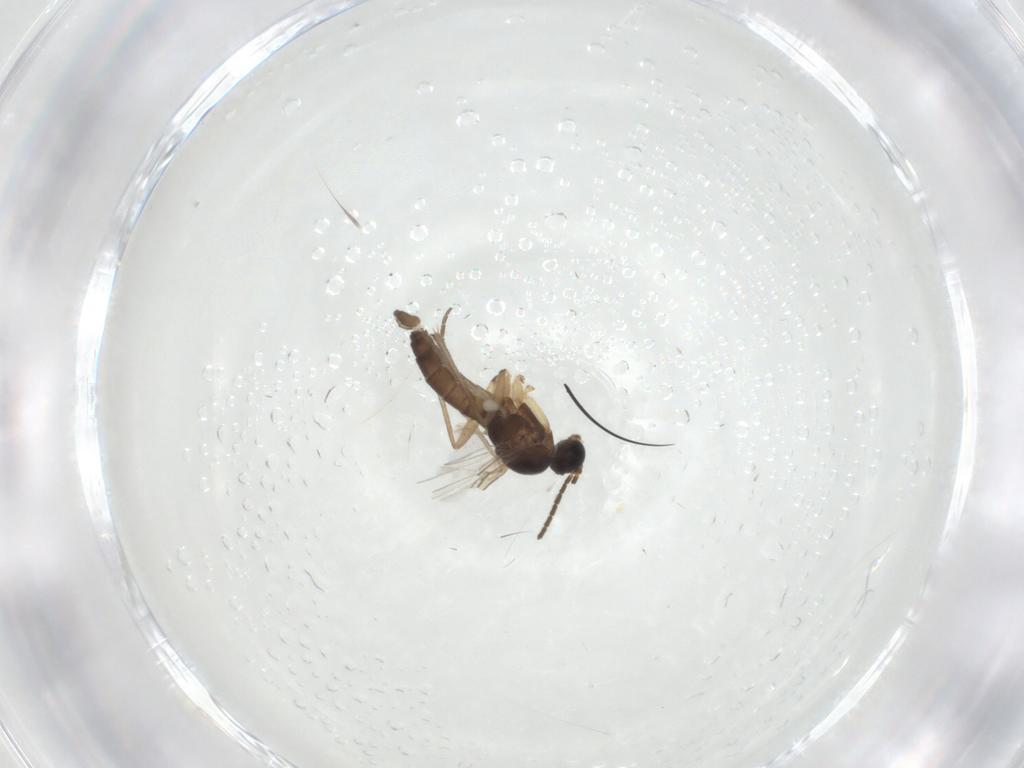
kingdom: Animalia
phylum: Arthropoda
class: Insecta
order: Diptera
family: Sciaridae
